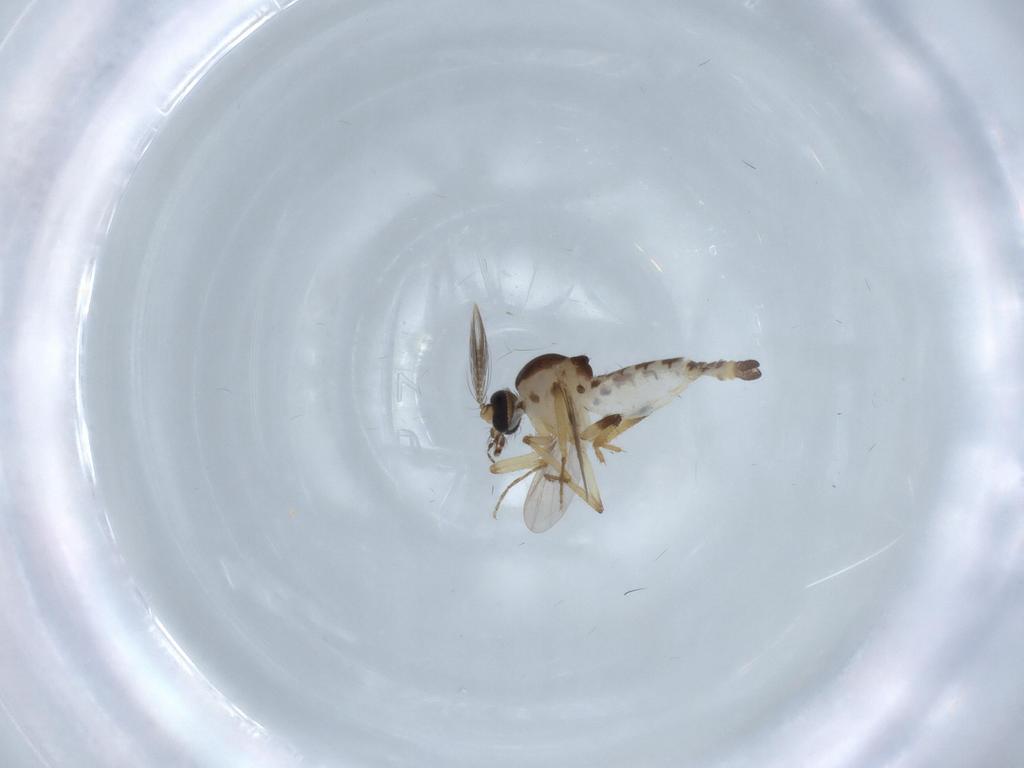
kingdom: Animalia
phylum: Arthropoda
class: Insecta
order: Diptera
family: Ceratopogonidae
